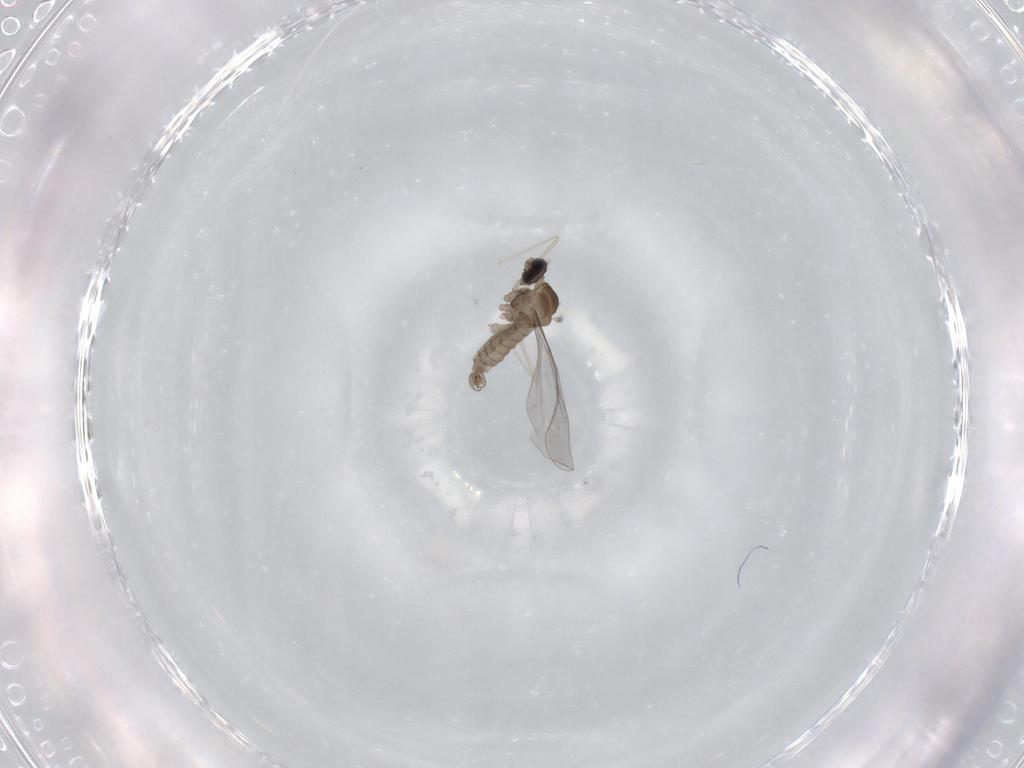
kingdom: Animalia
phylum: Arthropoda
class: Insecta
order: Diptera
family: Cecidomyiidae
